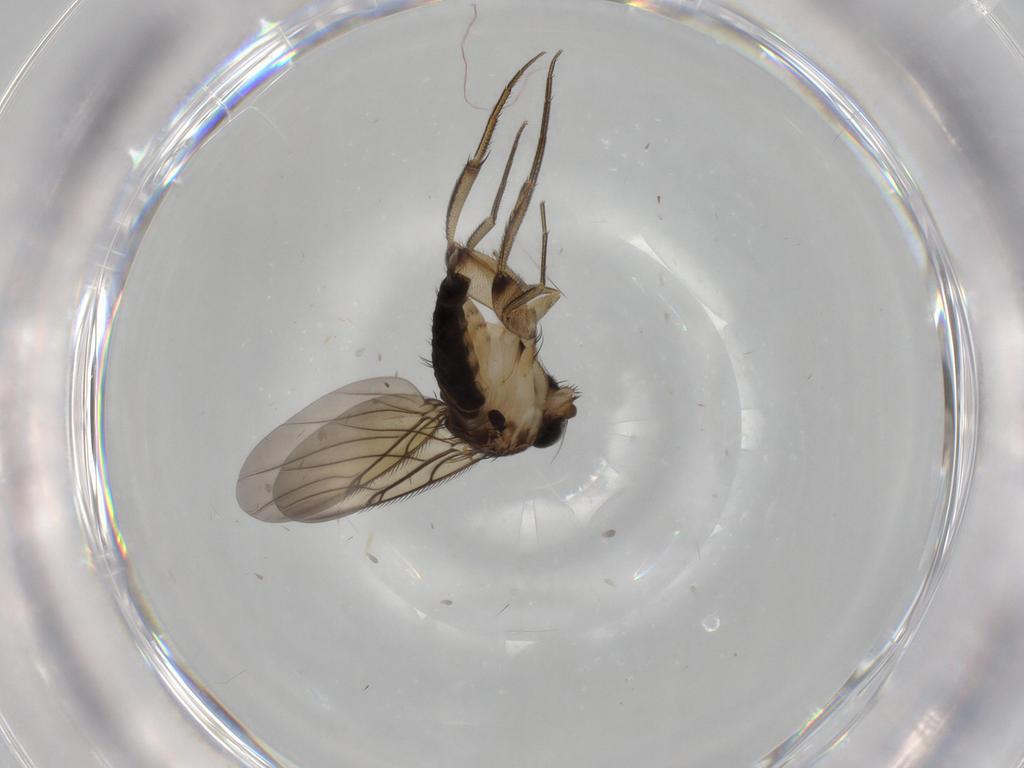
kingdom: Animalia
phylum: Arthropoda
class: Insecta
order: Diptera
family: Phoridae
